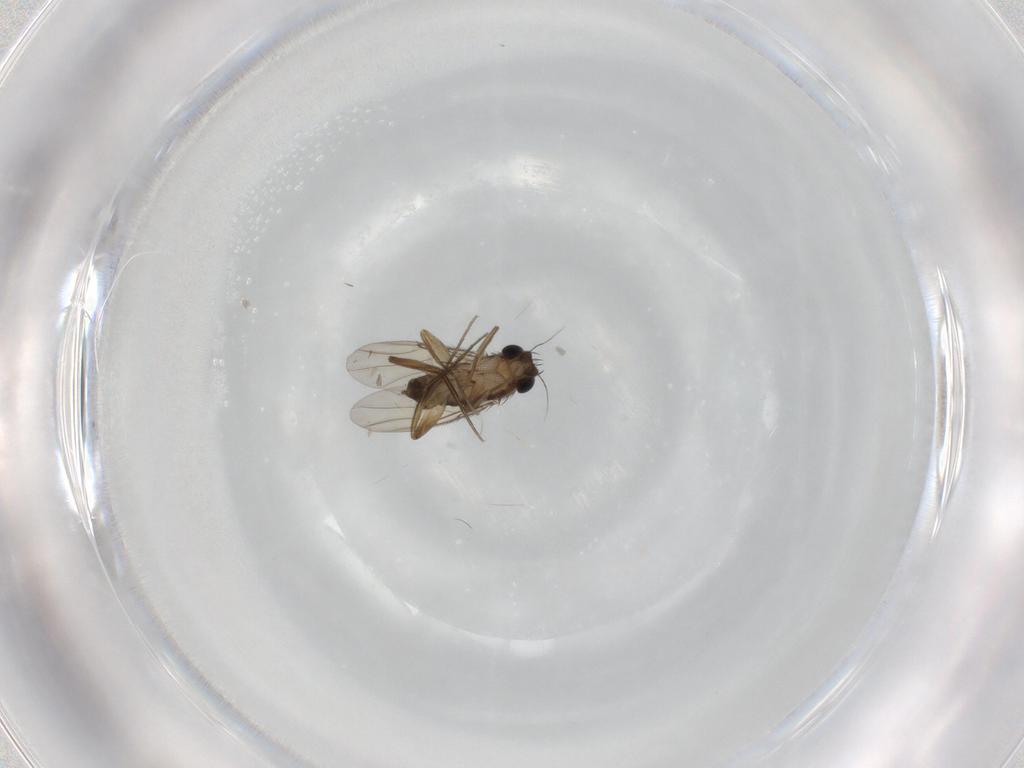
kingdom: Animalia
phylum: Arthropoda
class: Insecta
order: Diptera
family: Phoridae
